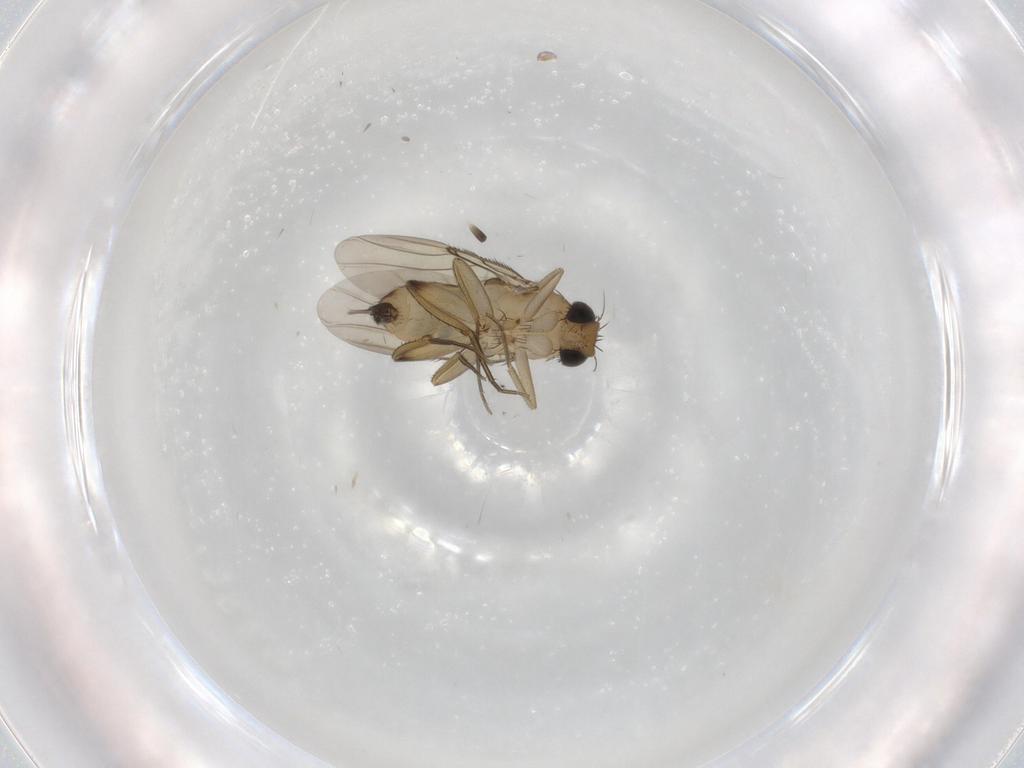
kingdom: Animalia
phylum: Arthropoda
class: Insecta
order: Diptera
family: Phoridae
